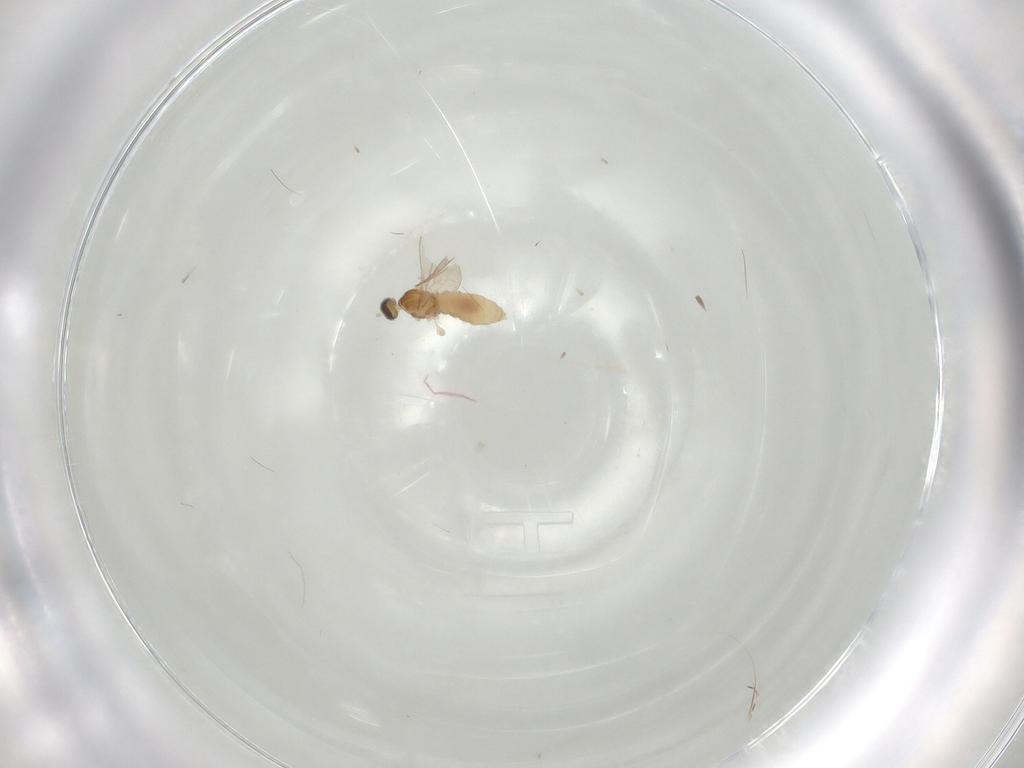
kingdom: Animalia
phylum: Arthropoda
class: Insecta
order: Diptera
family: Cecidomyiidae
